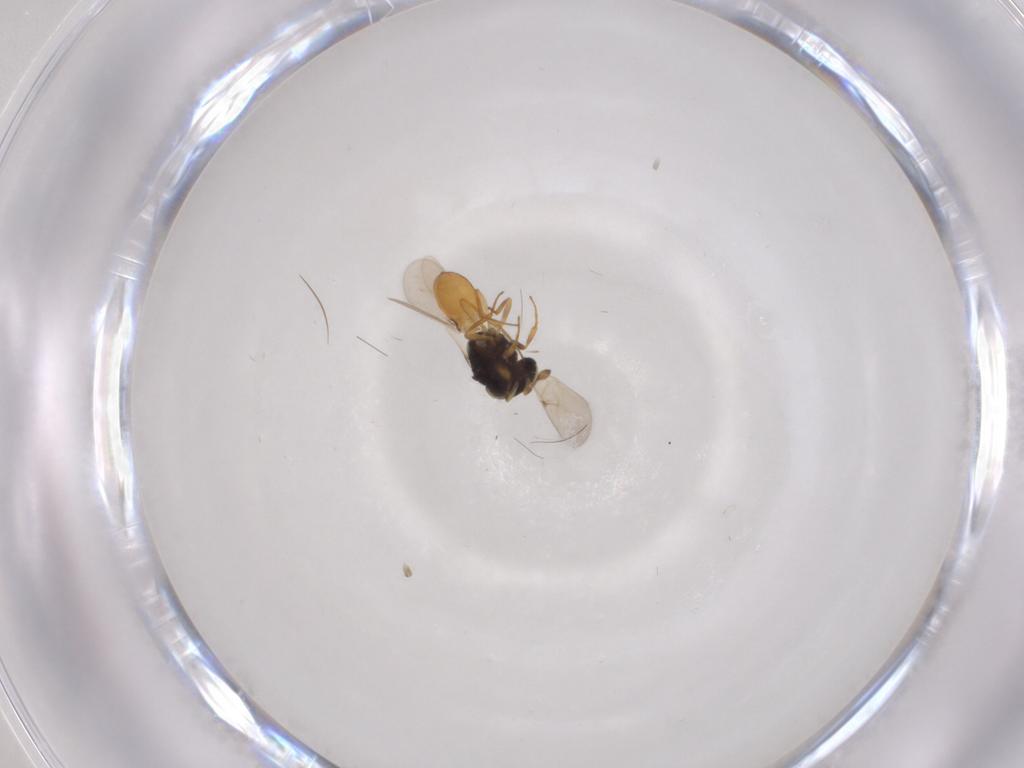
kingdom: Animalia
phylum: Arthropoda
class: Insecta
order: Hymenoptera
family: Scelionidae
